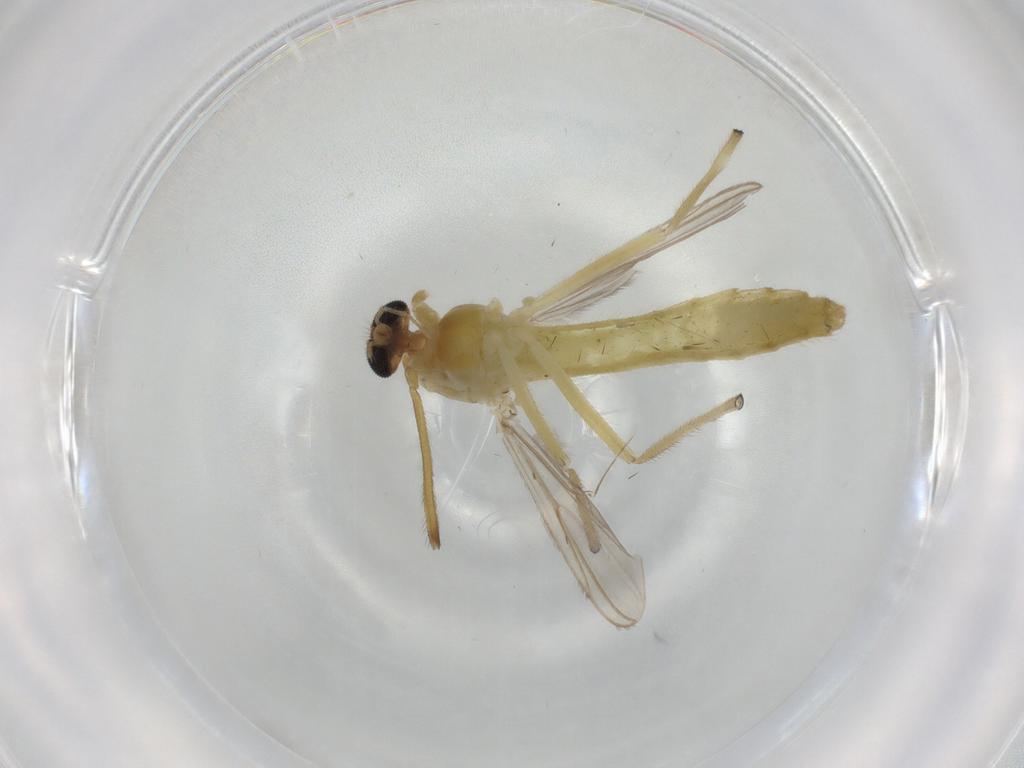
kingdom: Animalia
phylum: Arthropoda
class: Insecta
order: Diptera
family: Chironomidae
